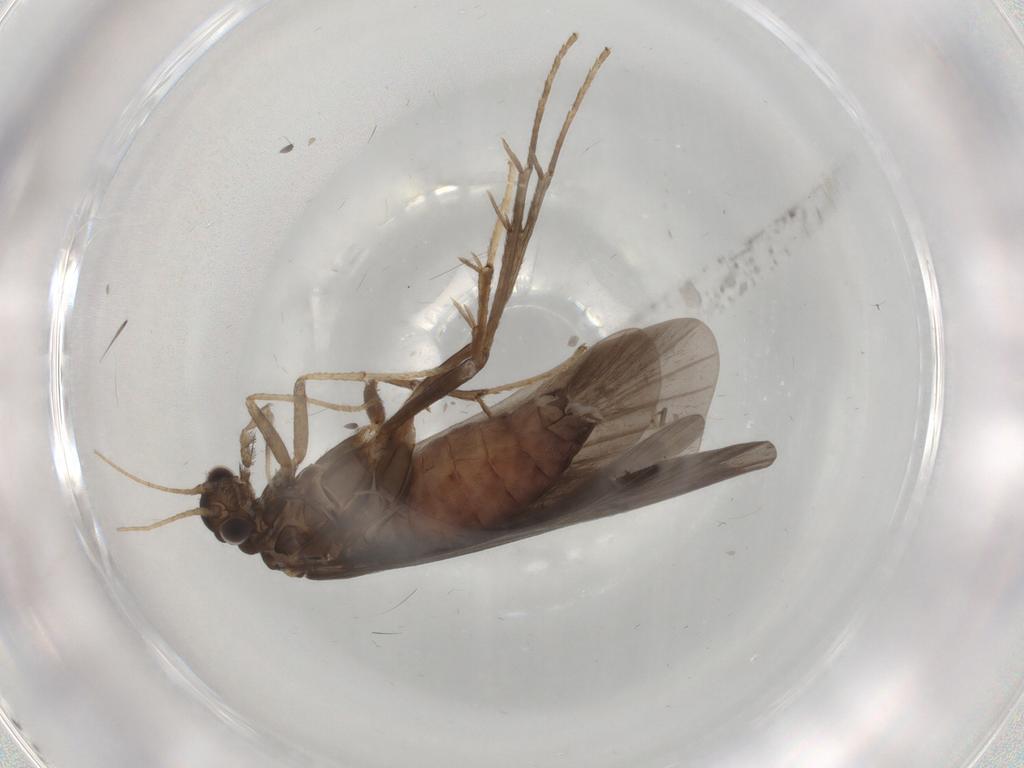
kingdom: Animalia
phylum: Arthropoda
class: Insecta
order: Trichoptera
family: Hydropsychidae
